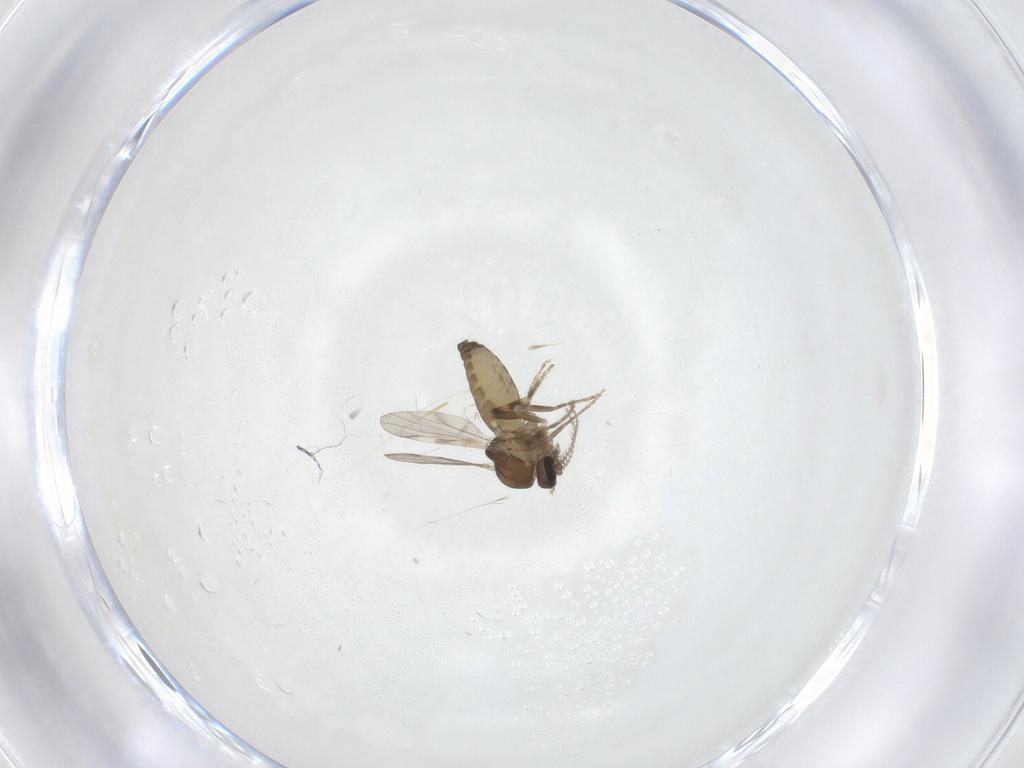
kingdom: Animalia
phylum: Arthropoda
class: Insecta
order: Diptera
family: Ceratopogonidae
